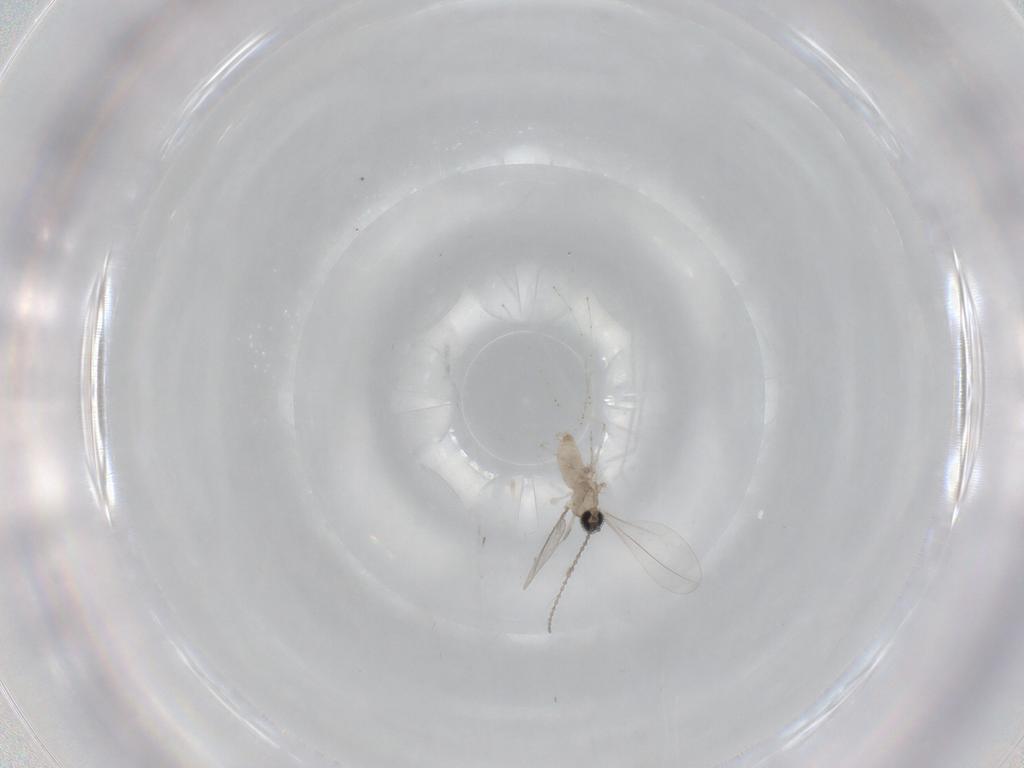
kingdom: Animalia
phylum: Arthropoda
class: Insecta
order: Diptera
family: Cecidomyiidae
